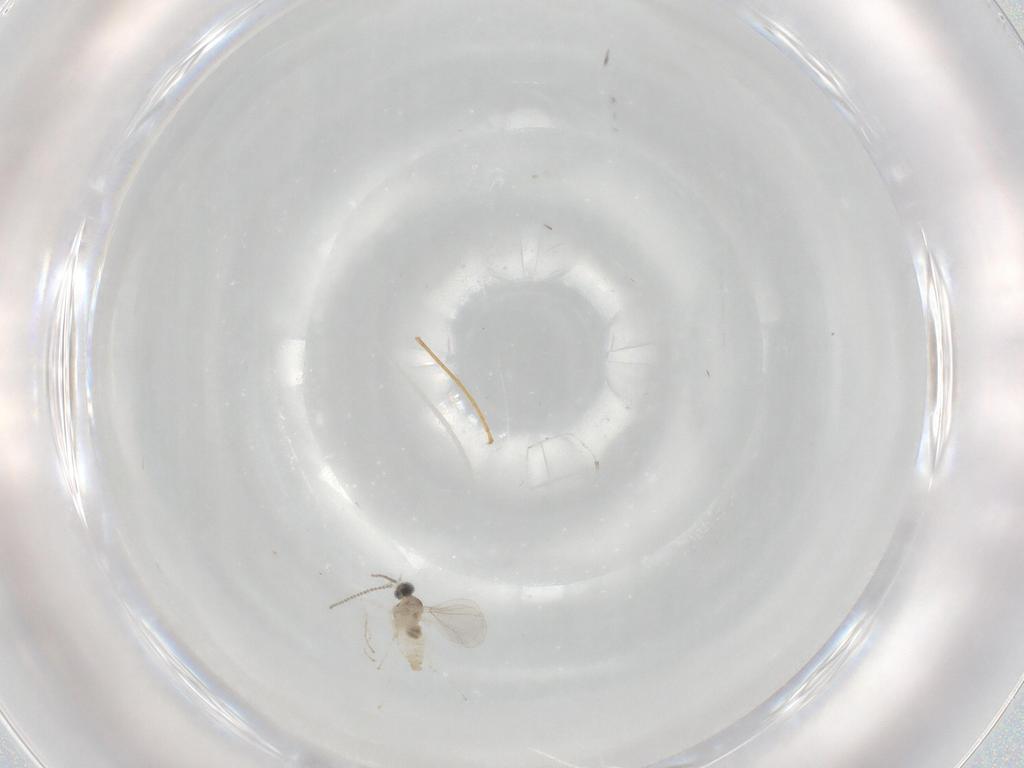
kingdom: Animalia
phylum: Arthropoda
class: Insecta
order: Diptera
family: Cecidomyiidae
